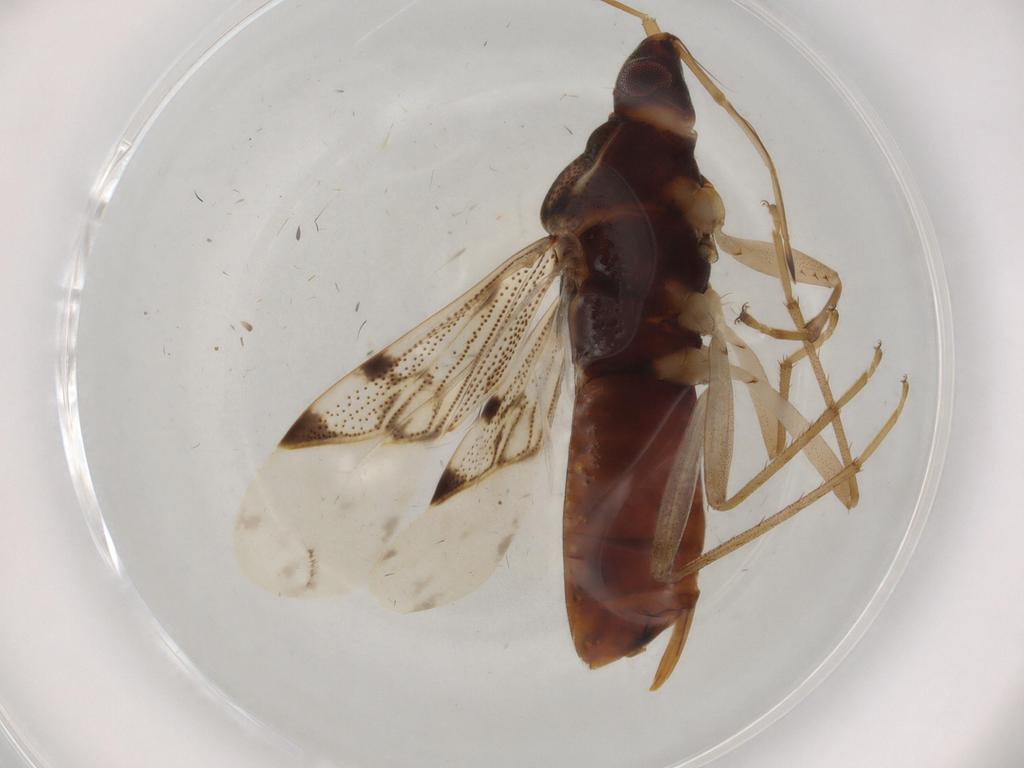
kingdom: Animalia
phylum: Arthropoda
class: Insecta
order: Hemiptera
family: Rhyparochromidae
